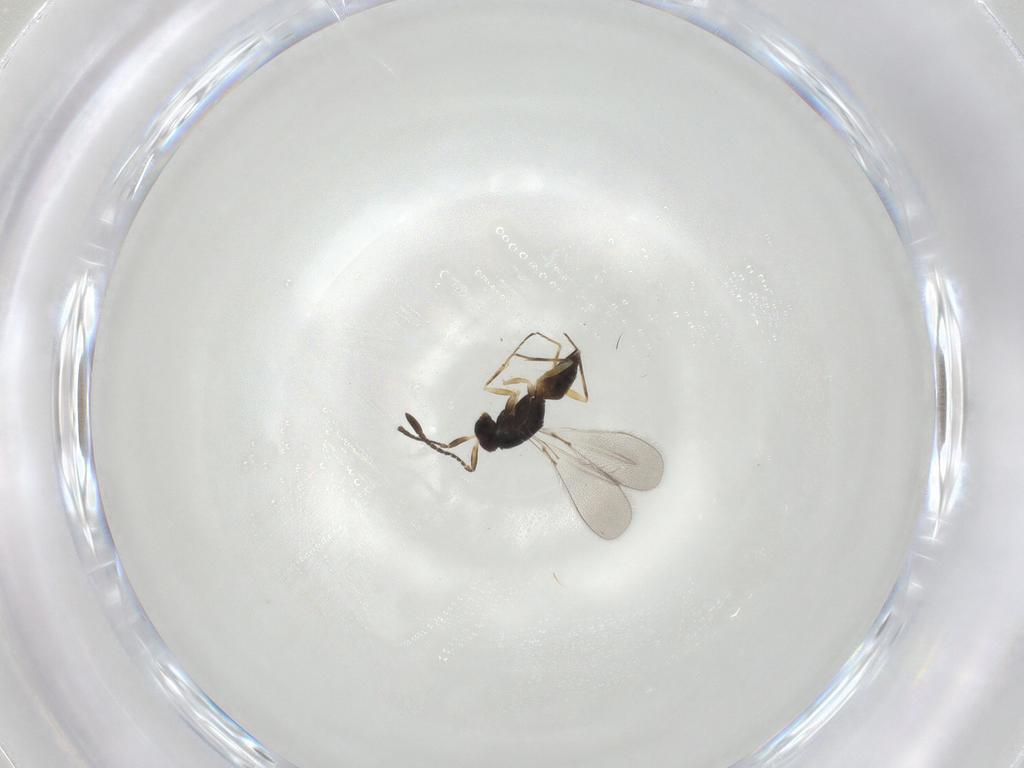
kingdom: Animalia
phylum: Arthropoda
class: Insecta
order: Hymenoptera
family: Mymaridae
